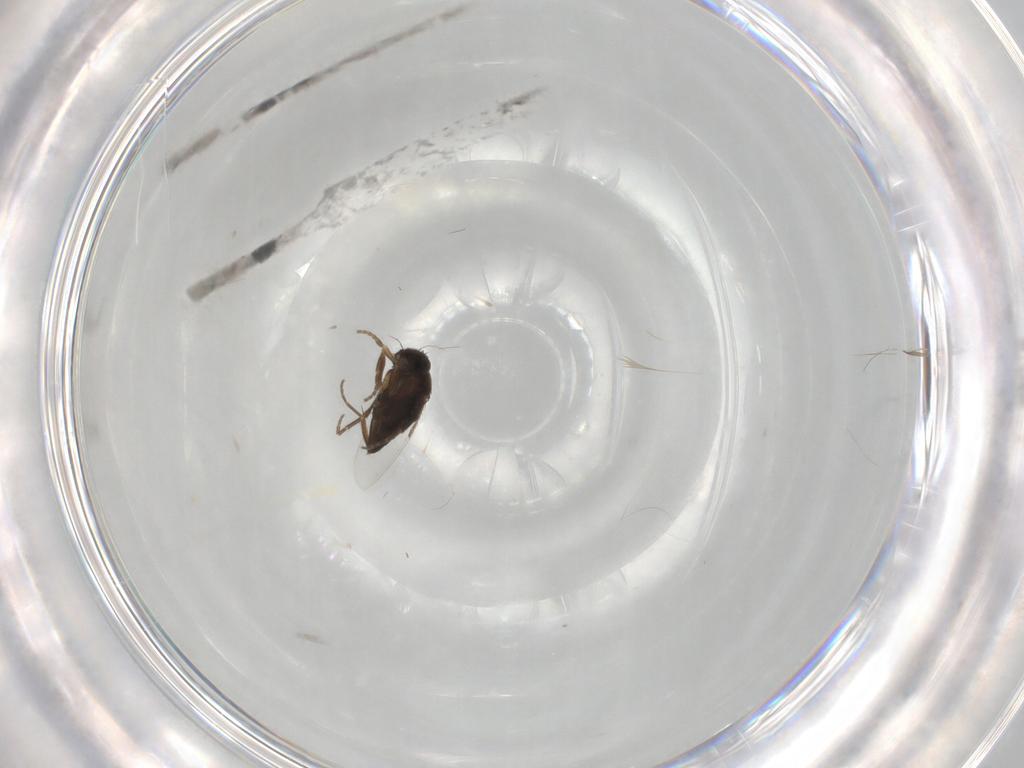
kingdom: Animalia
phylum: Arthropoda
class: Insecta
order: Diptera
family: Phoridae
